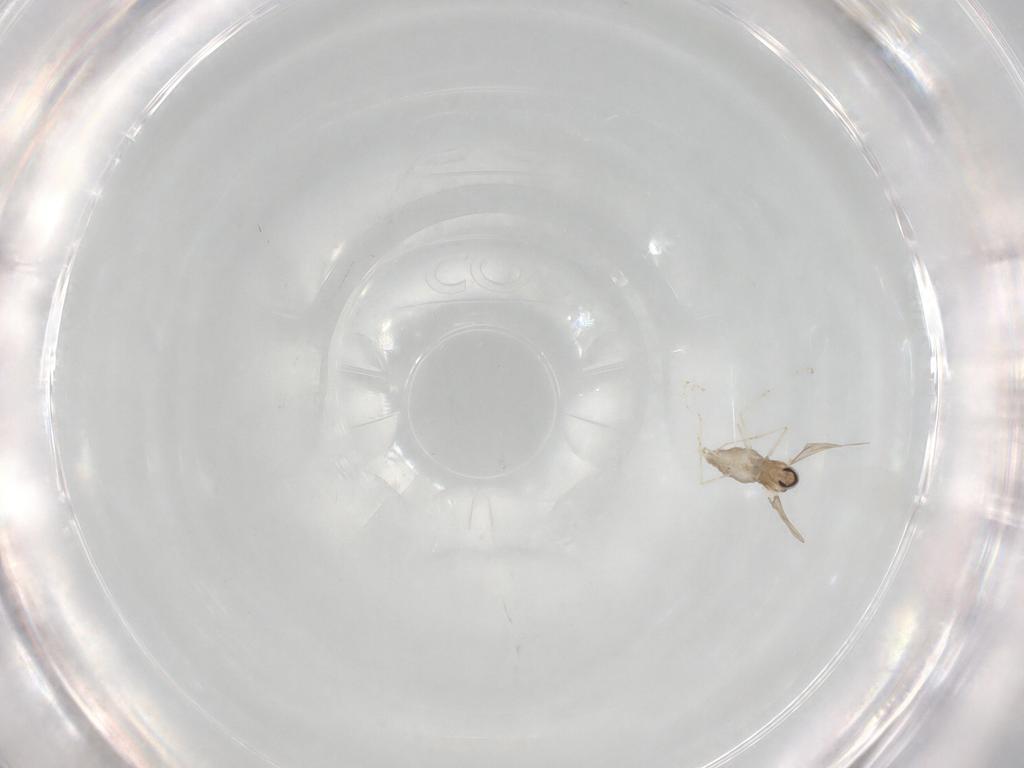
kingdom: Animalia
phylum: Arthropoda
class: Insecta
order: Diptera
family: Cecidomyiidae
